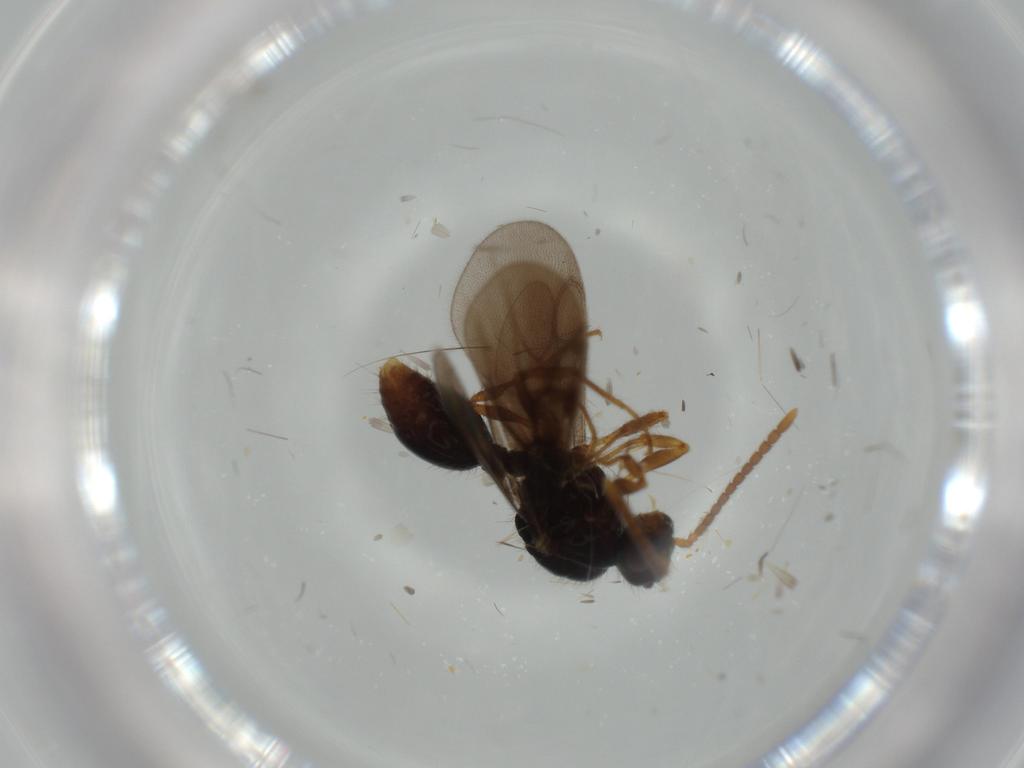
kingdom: Animalia
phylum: Arthropoda
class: Insecta
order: Hymenoptera
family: Formicidae
